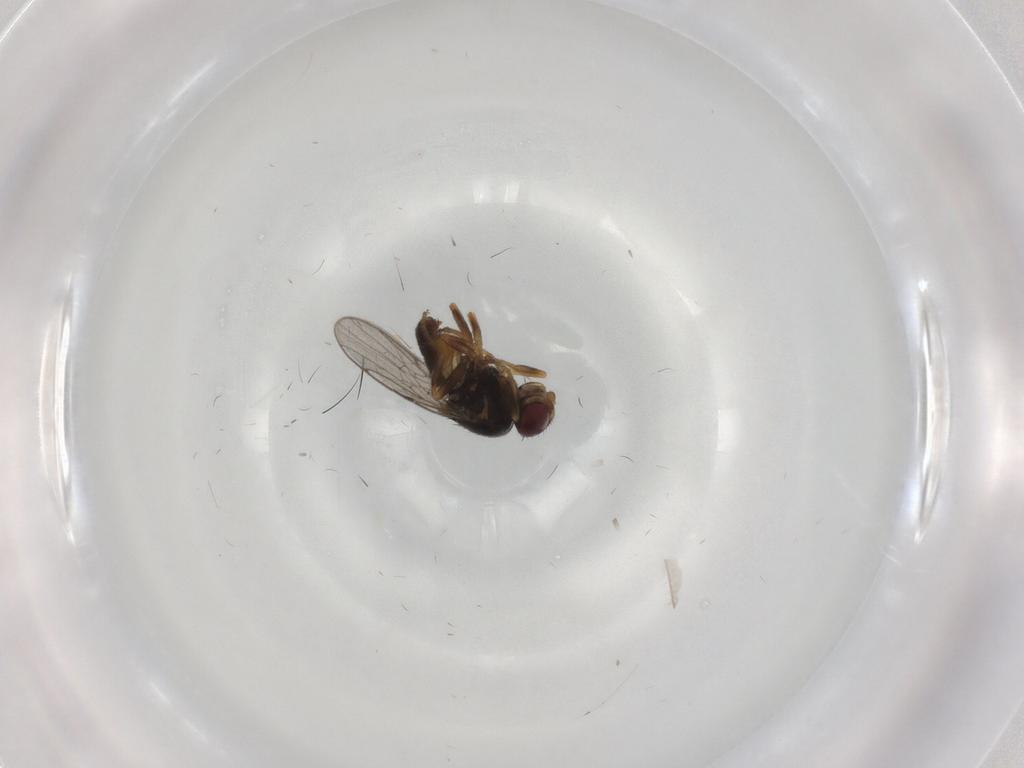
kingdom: Animalia
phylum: Arthropoda
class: Insecta
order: Diptera
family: Chloropidae
